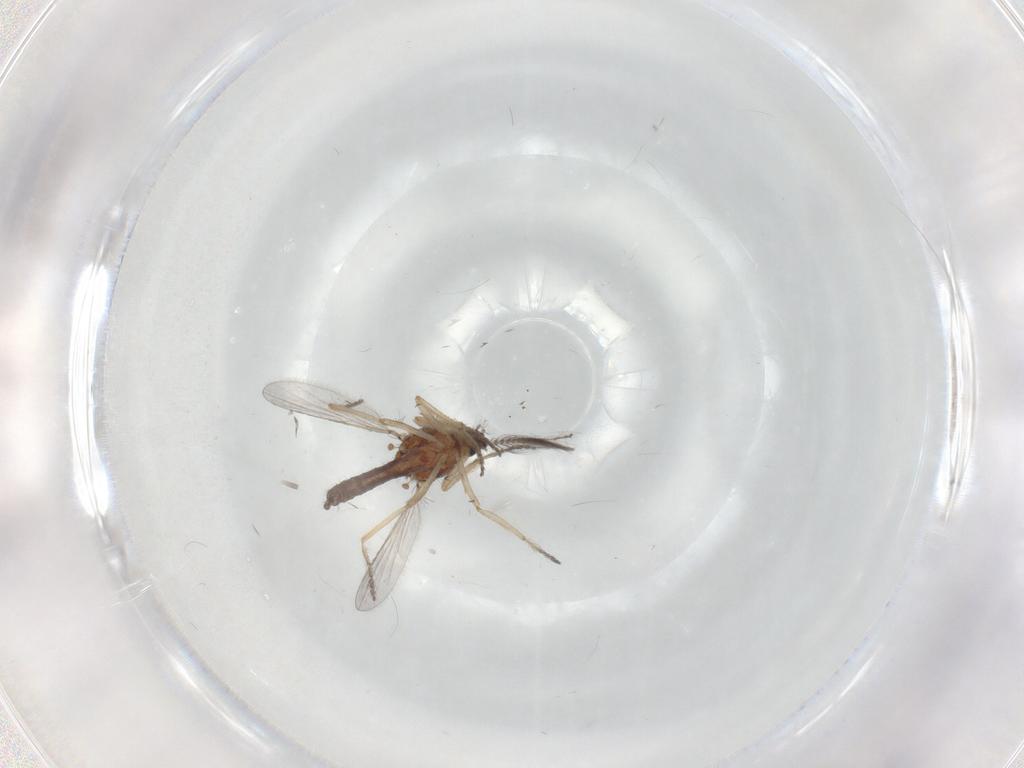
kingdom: Animalia
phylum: Arthropoda
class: Insecta
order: Diptera
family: Ceratopogonidae
